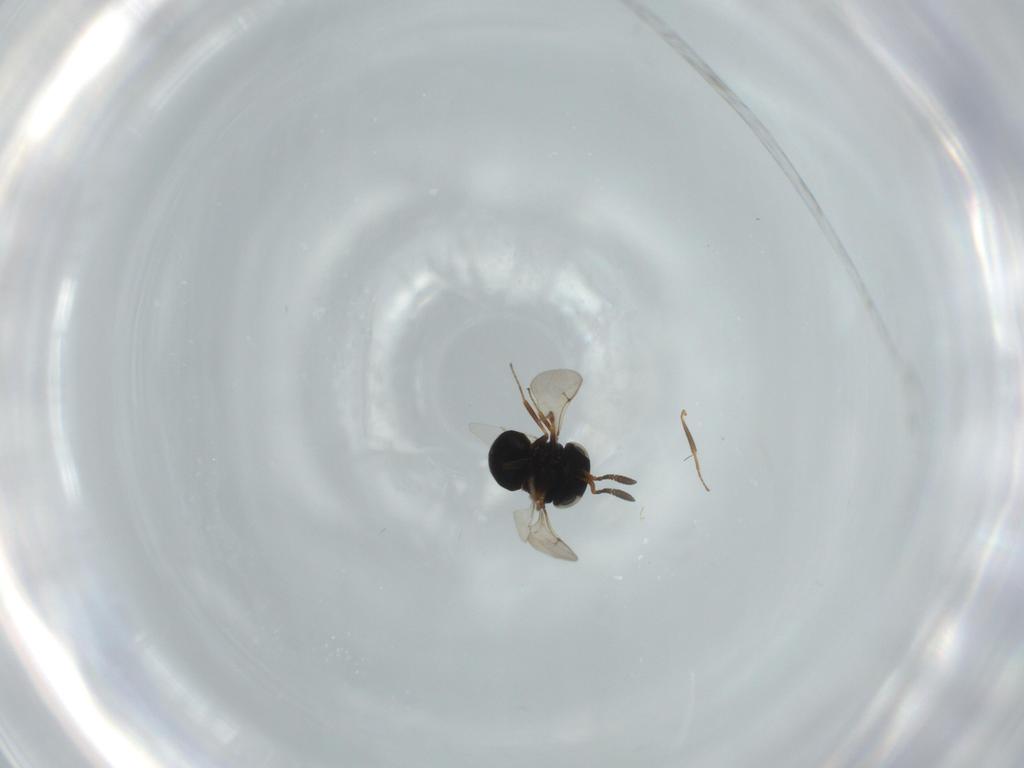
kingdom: Animalia
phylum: Arthropoda
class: Insecta
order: Hymenoptera
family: Scelionidae
